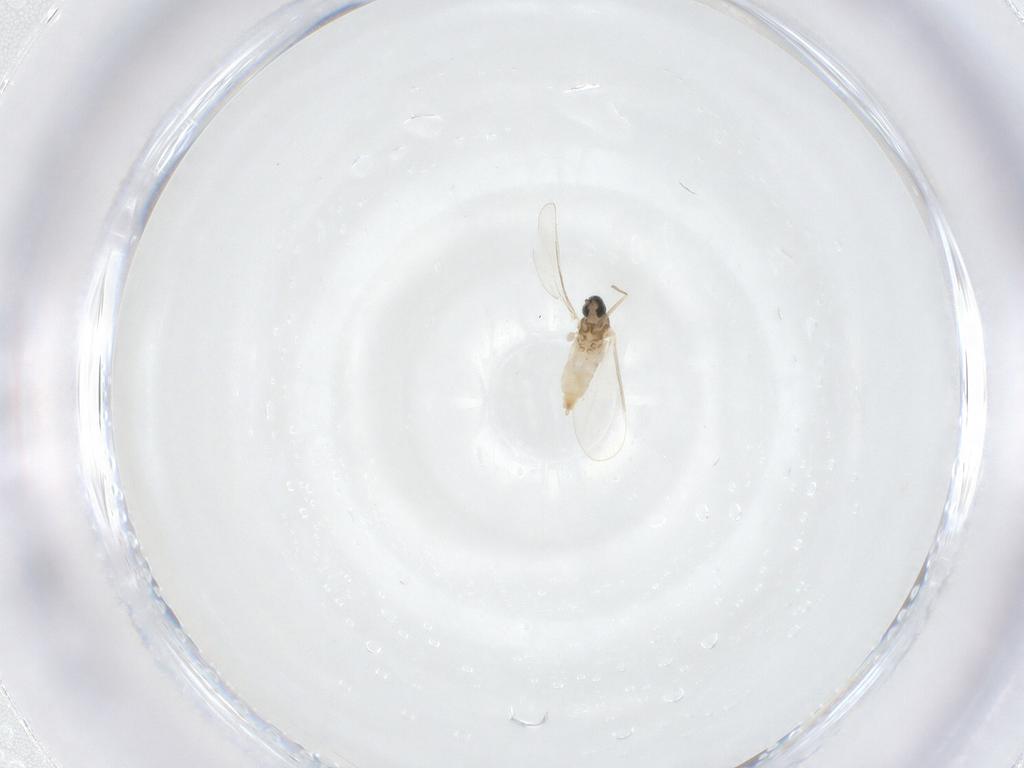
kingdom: Animalia
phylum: Arthropoda
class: Insecta
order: Diptera
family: Cecidomyiidae
